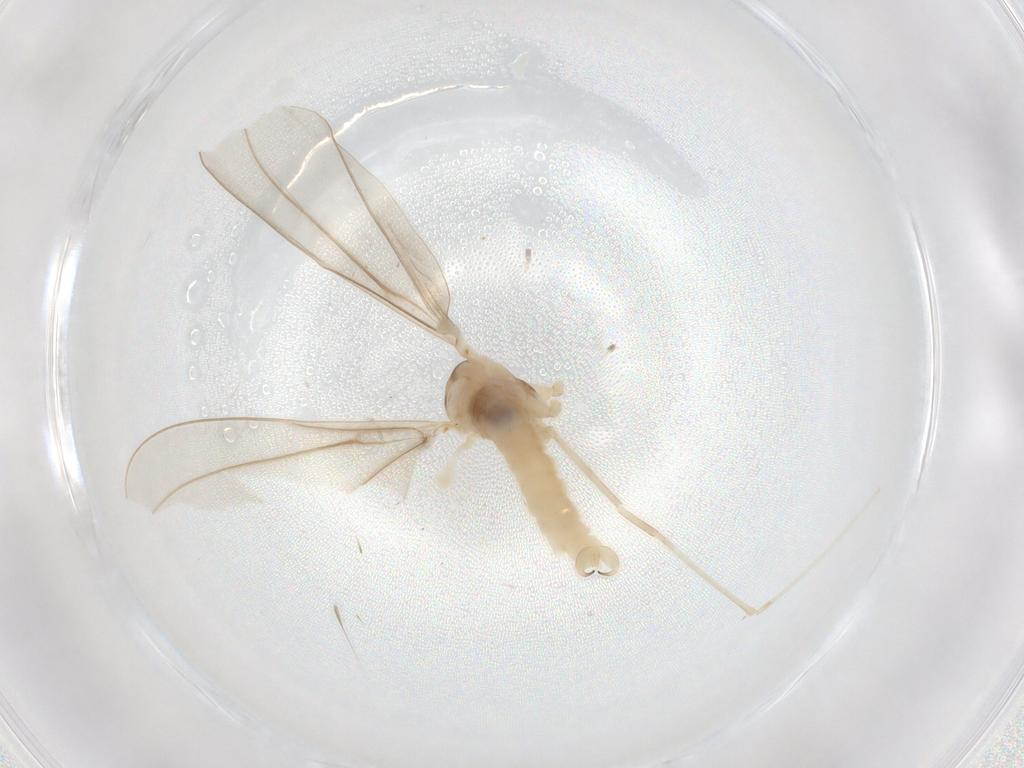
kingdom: Animalia
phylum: Arthropoda
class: Insecta
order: Diptera
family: Cecidomyiidae
